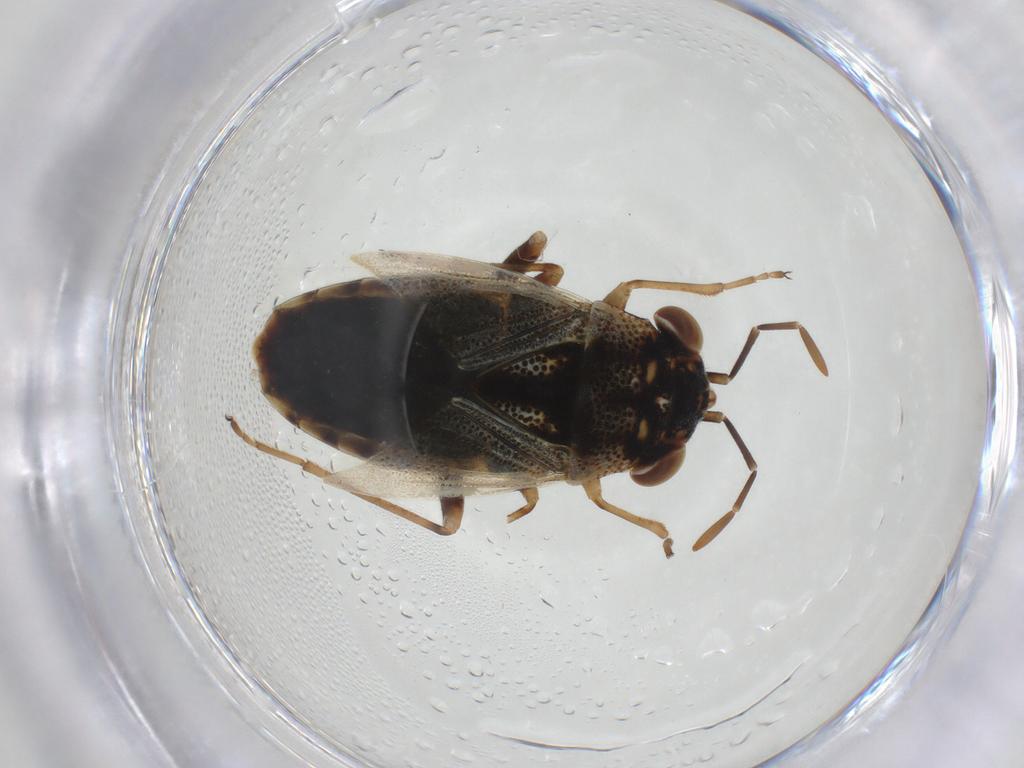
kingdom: Animalia
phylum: Arthropoda
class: Insecta
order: Hemiptera
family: Geocoridae
